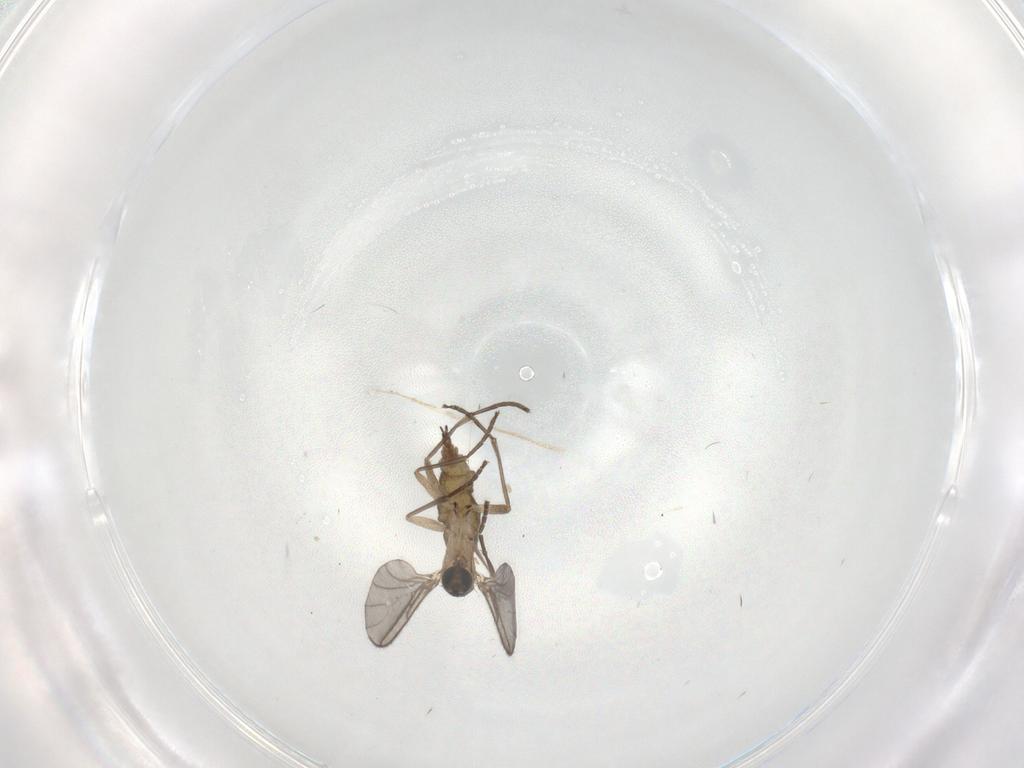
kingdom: Animalia
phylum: Arthropoda
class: Insecta
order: Diptera
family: Sciaridae
